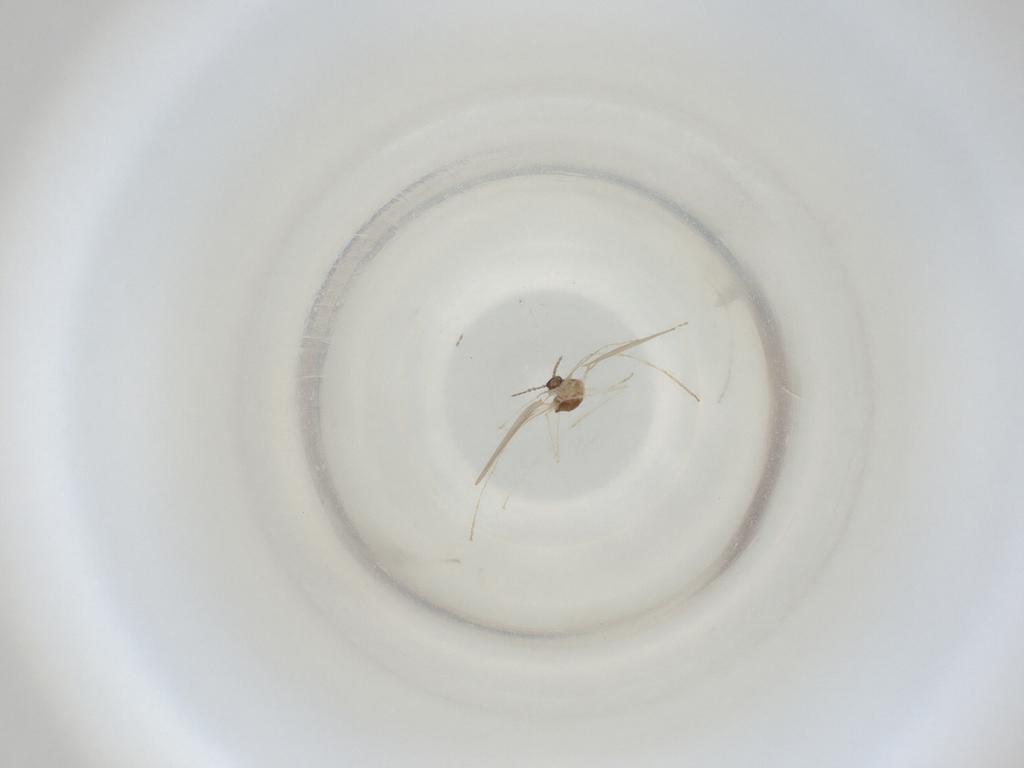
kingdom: Animalia
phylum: Arthropoda
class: Insecta
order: Diptera
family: Cecidomyiidae
